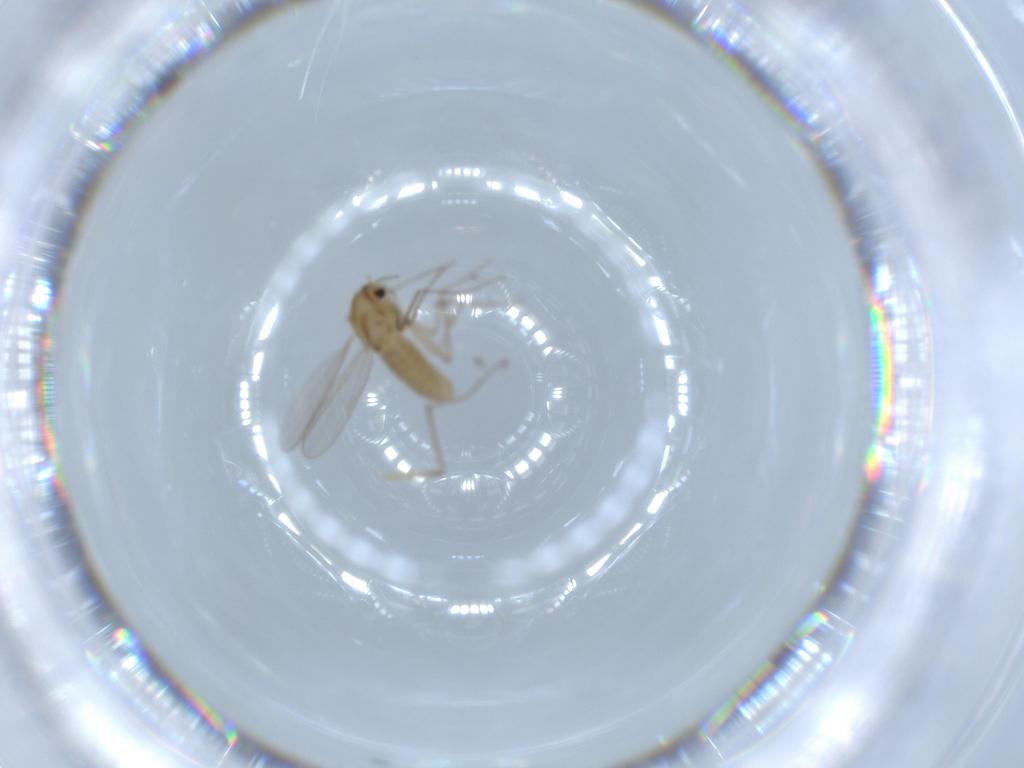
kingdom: Animalia
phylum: Arthropoda
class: Insecta
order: Diptera
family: Chironomidae
